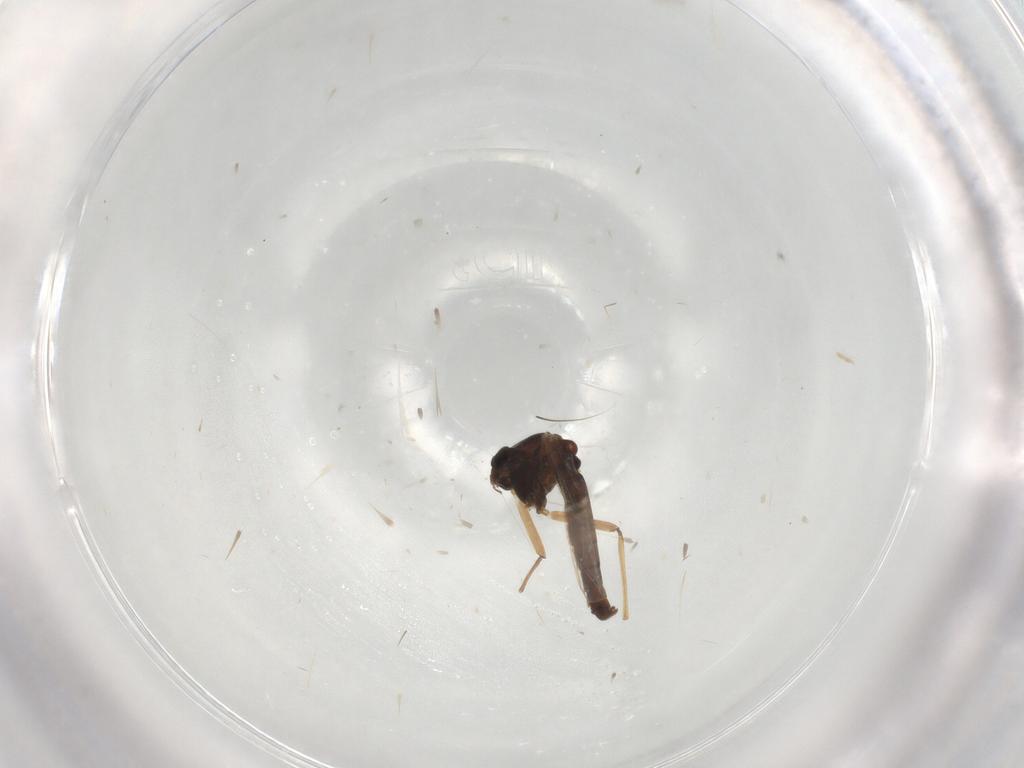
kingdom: Animalia
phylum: Arthropoda
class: Insecta
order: Diptera
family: Chironomidae
